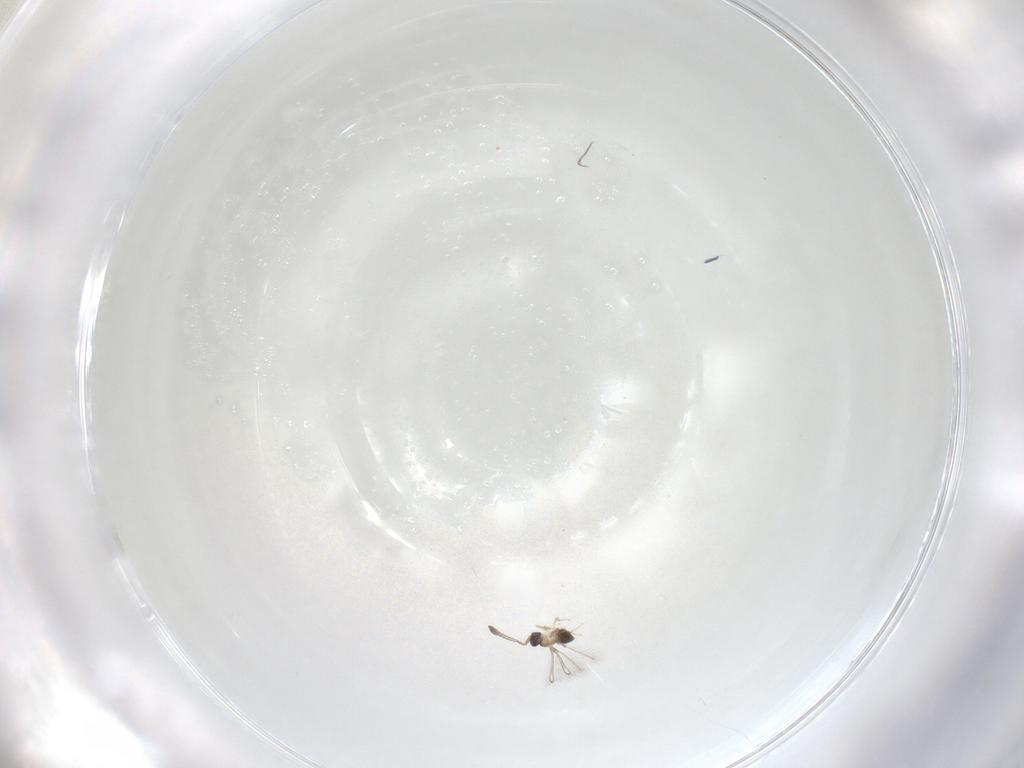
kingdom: Animalia
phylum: Arthropoda
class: Insecta
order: Hymenoptera
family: Mymaridae
